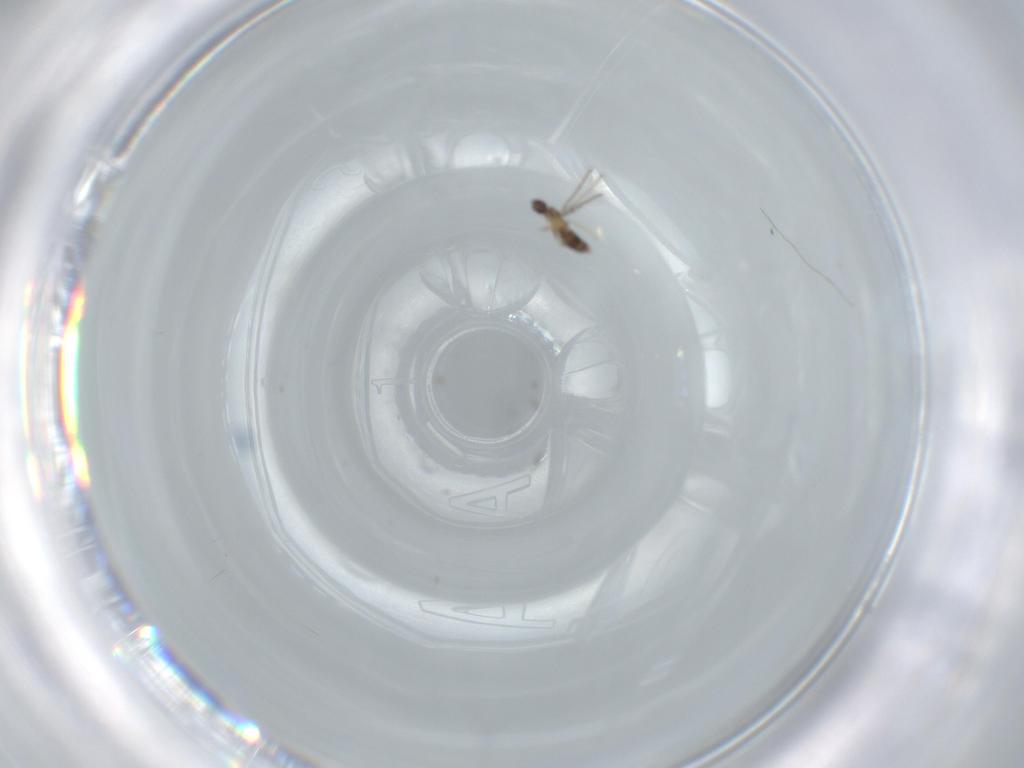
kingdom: Animalia
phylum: Arthropoda
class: Insecta
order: Hymenoptera
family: Mymaridae
